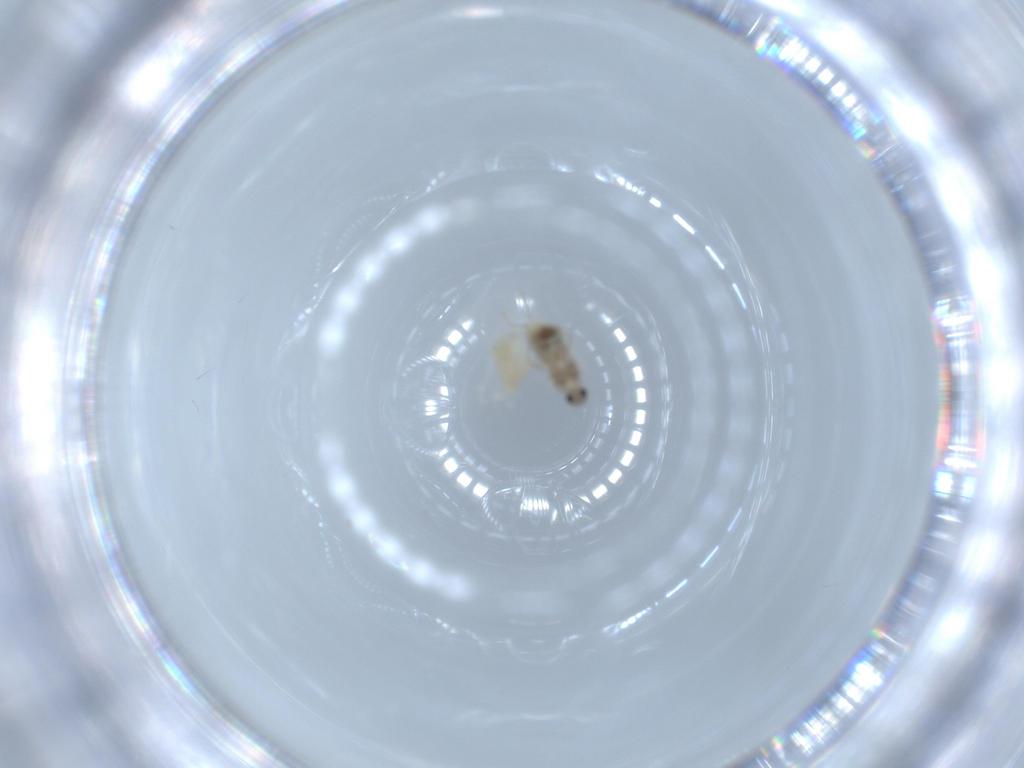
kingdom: Animalia
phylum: Arthropoda
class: Insecta
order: Diptera
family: Cecidomyiidae
